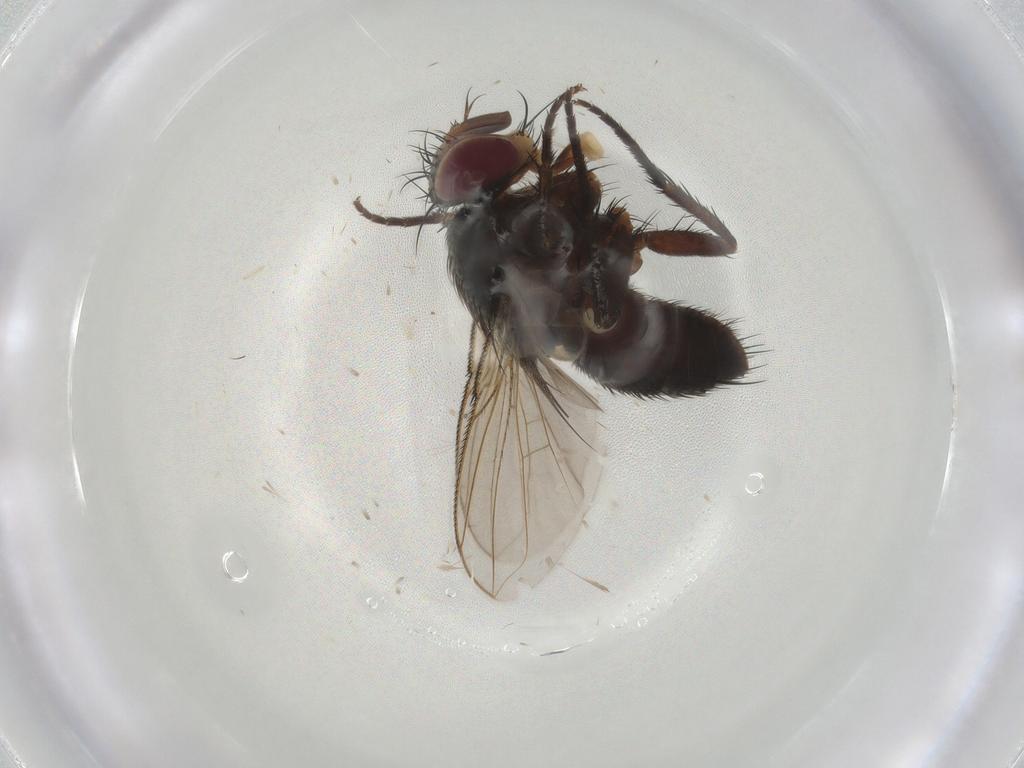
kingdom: Animalia
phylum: Arthropoda
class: Insecta
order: Diptera
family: Tachinidae
